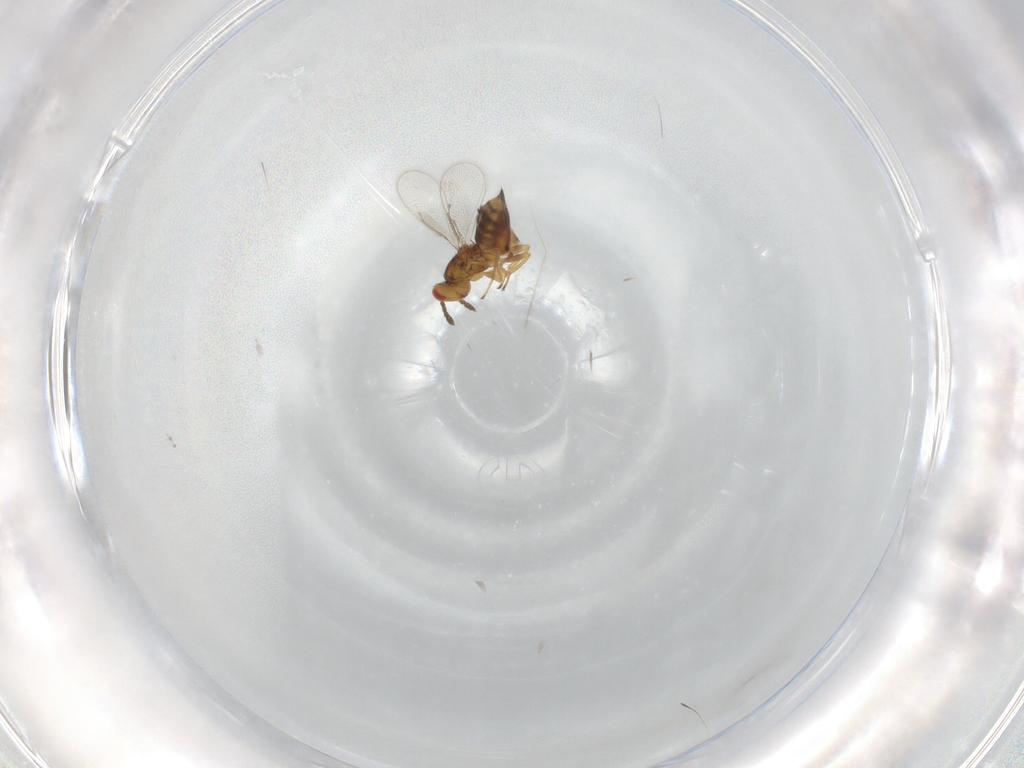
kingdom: Animalia
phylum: Arthropoda
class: Insecta
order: Hymenoptera
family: Eulophidae
